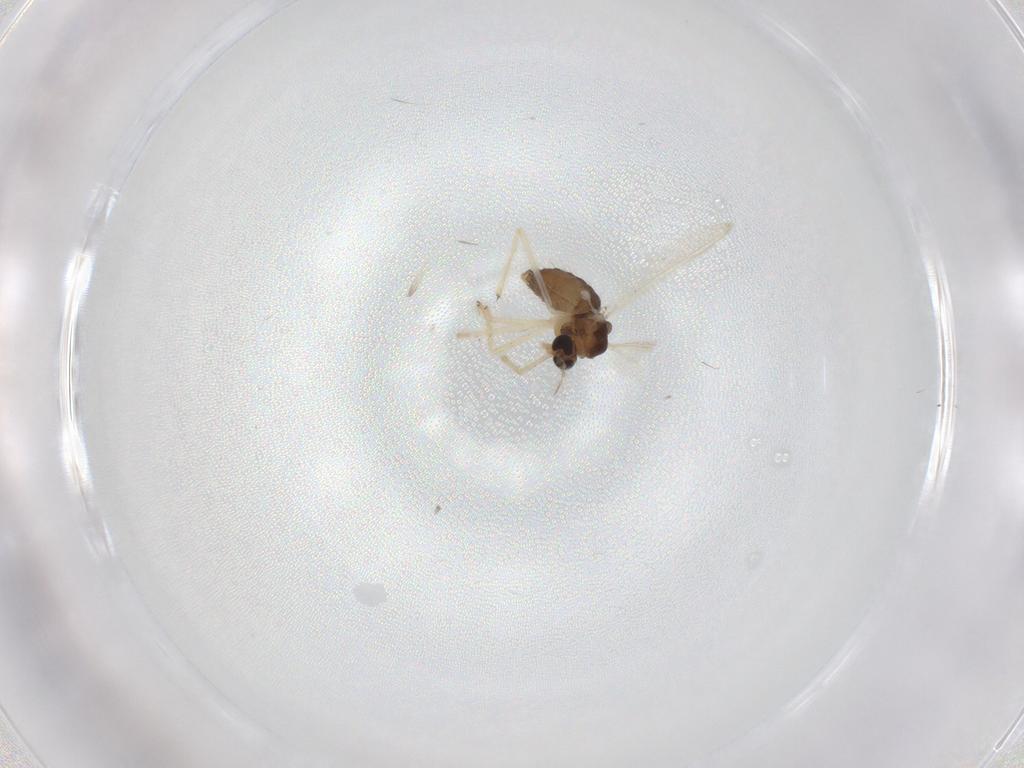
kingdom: Animalia
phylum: Arthropoda
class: Insecta
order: Diptera
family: Chironomidae
